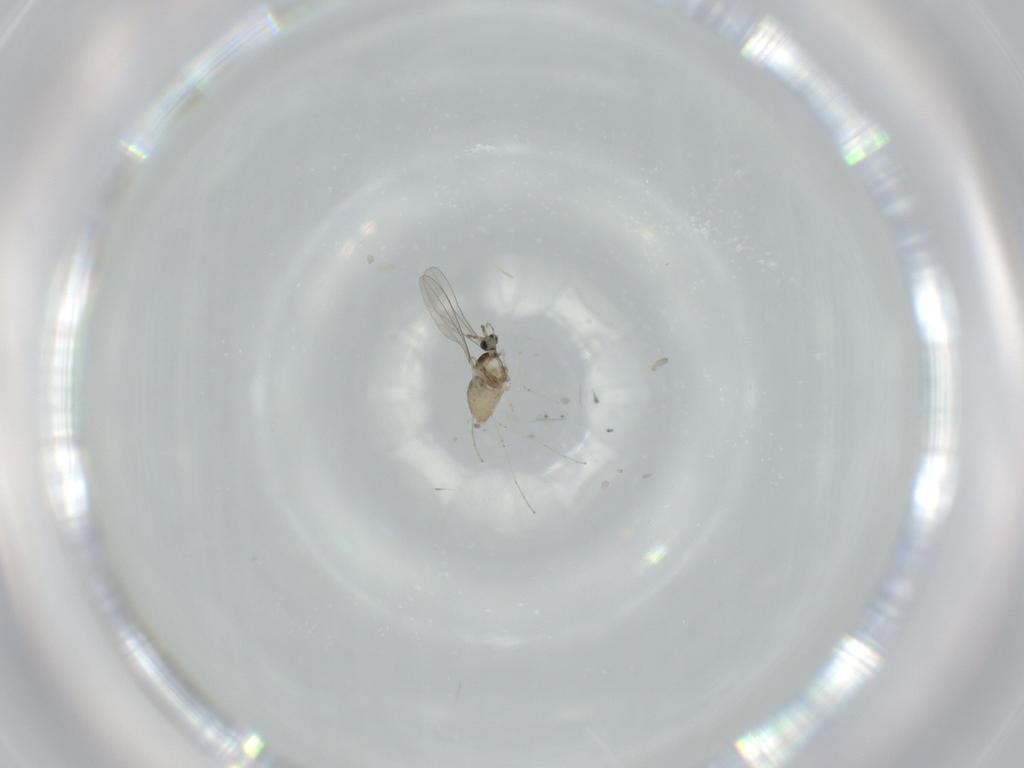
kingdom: Animalia
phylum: Arthropoda
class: Insecta
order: Diptera
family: Cecidomyiidae
